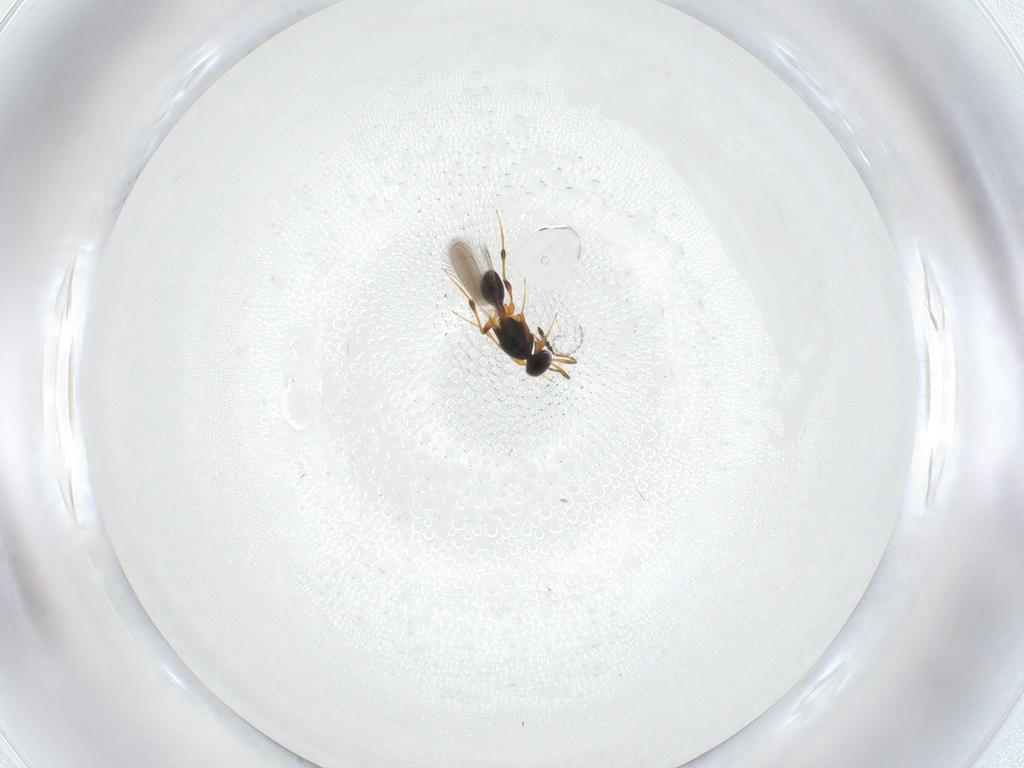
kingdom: Animalia
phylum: Arthropoda
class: Insecta
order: Hymenoptera
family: Platygastridae
